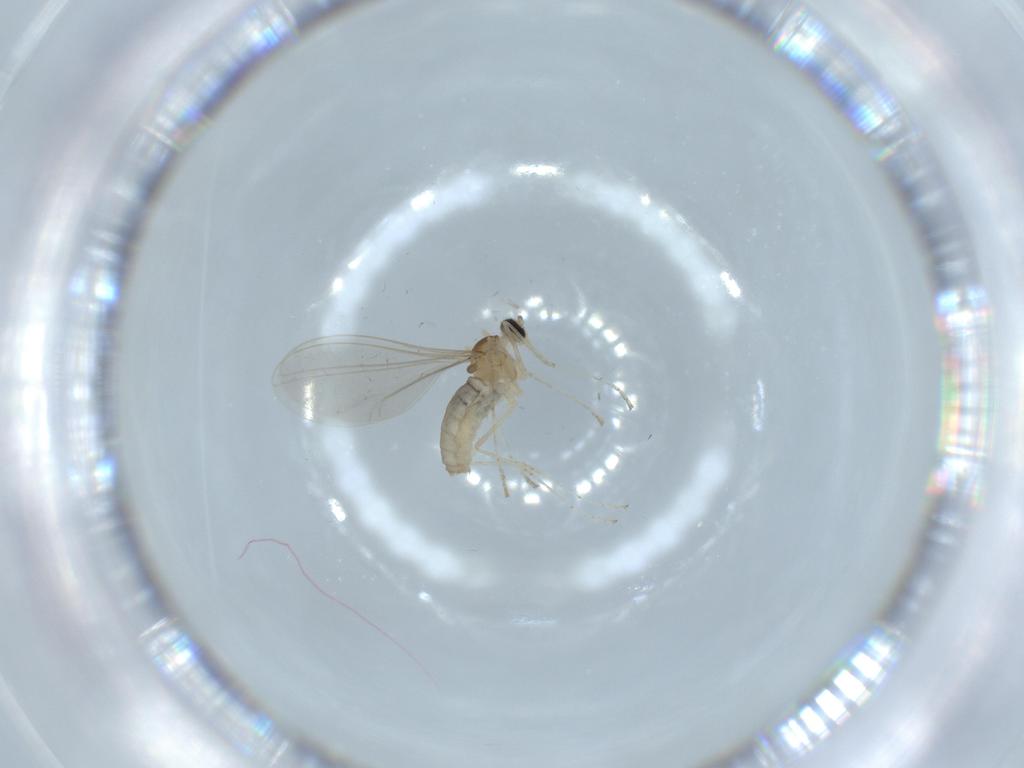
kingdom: Animalia
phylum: Arthropoda
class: Insecta
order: Diptera
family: Cecidomyiidae
